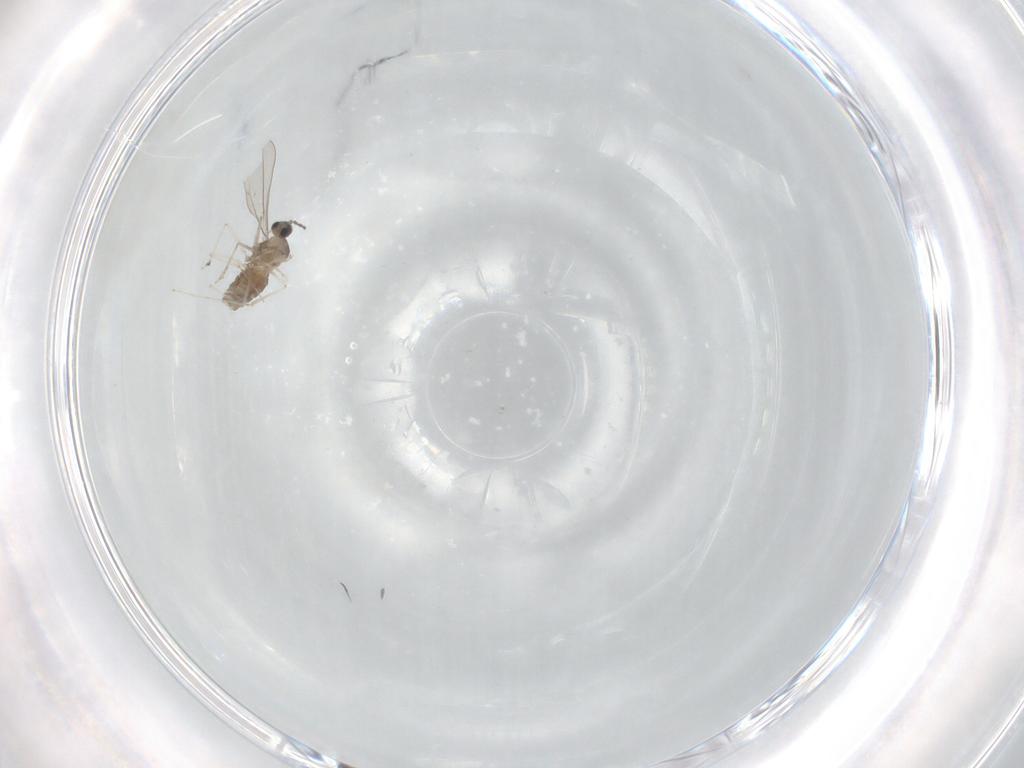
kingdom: Animalia
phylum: Arthropoda
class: Insecta
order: Diptera
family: Cecidomyiidae
